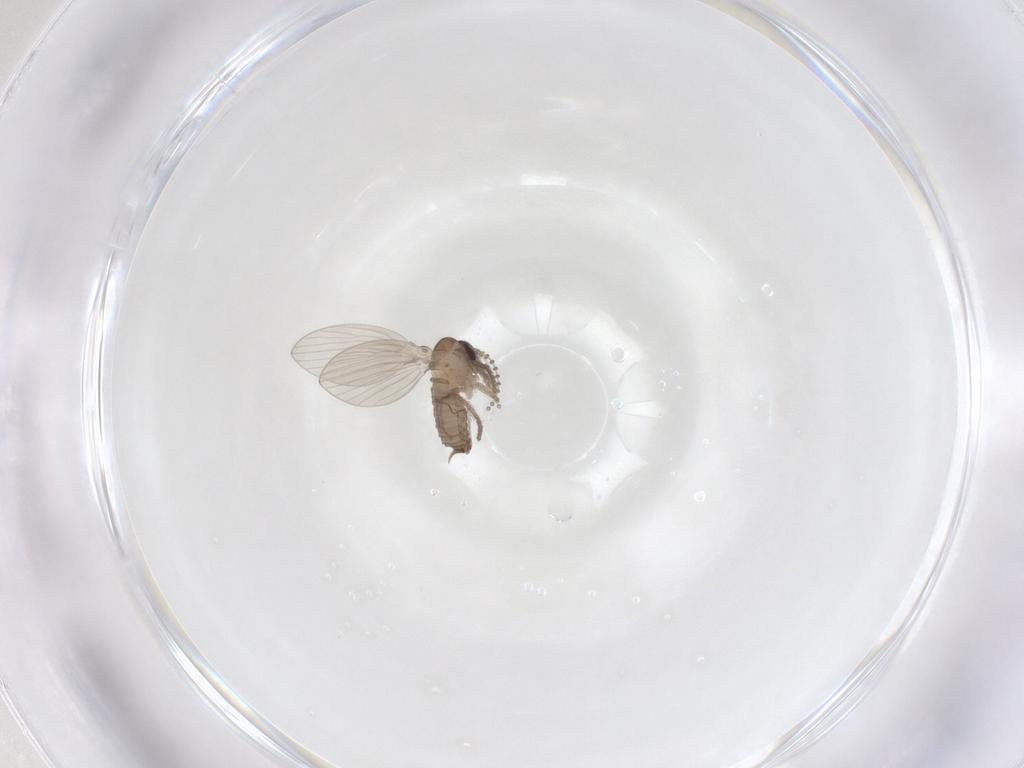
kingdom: Animalia
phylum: Arthropoda
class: Insecta
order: Diptera
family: Psychodidae
